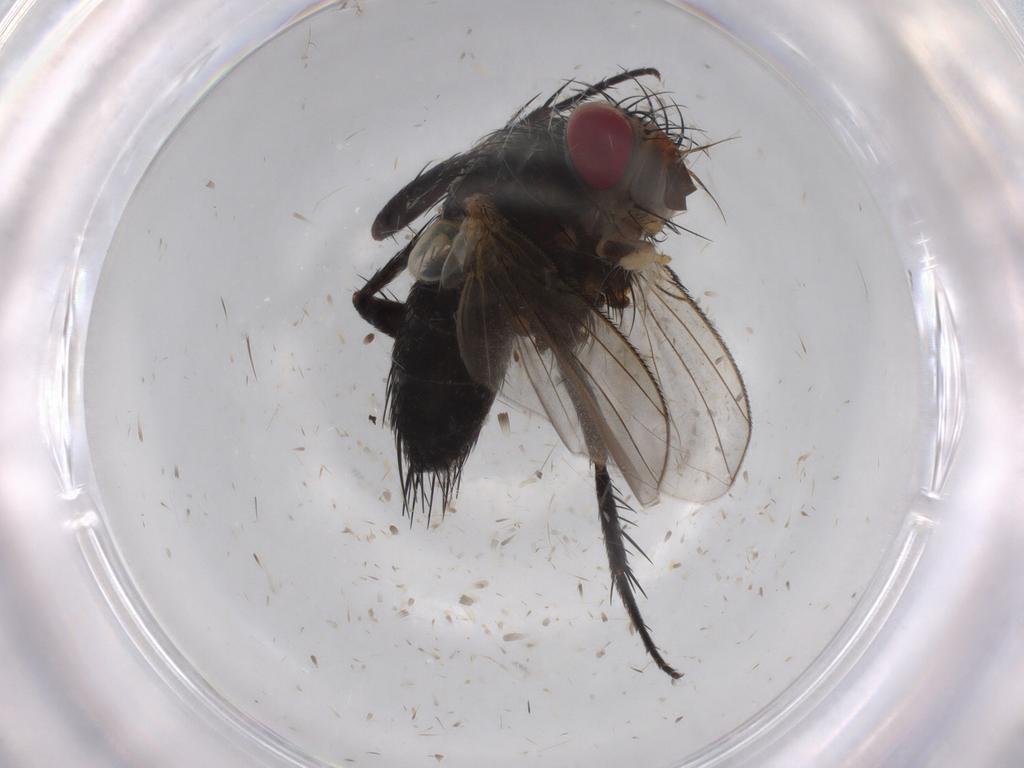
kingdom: Animalia
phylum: Arthropoda
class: Insecta
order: Diptera
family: Tachinidae
